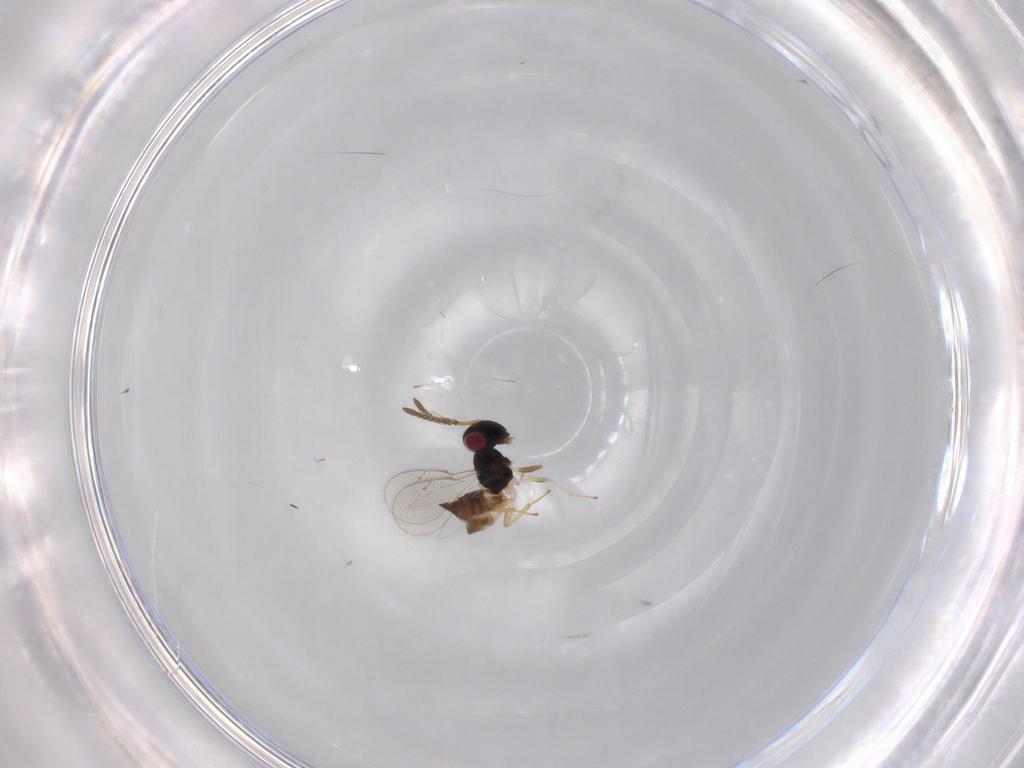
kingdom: Animalia
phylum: Arthropoda
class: Insecta
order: Hymenoptera
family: Pteromalidae
